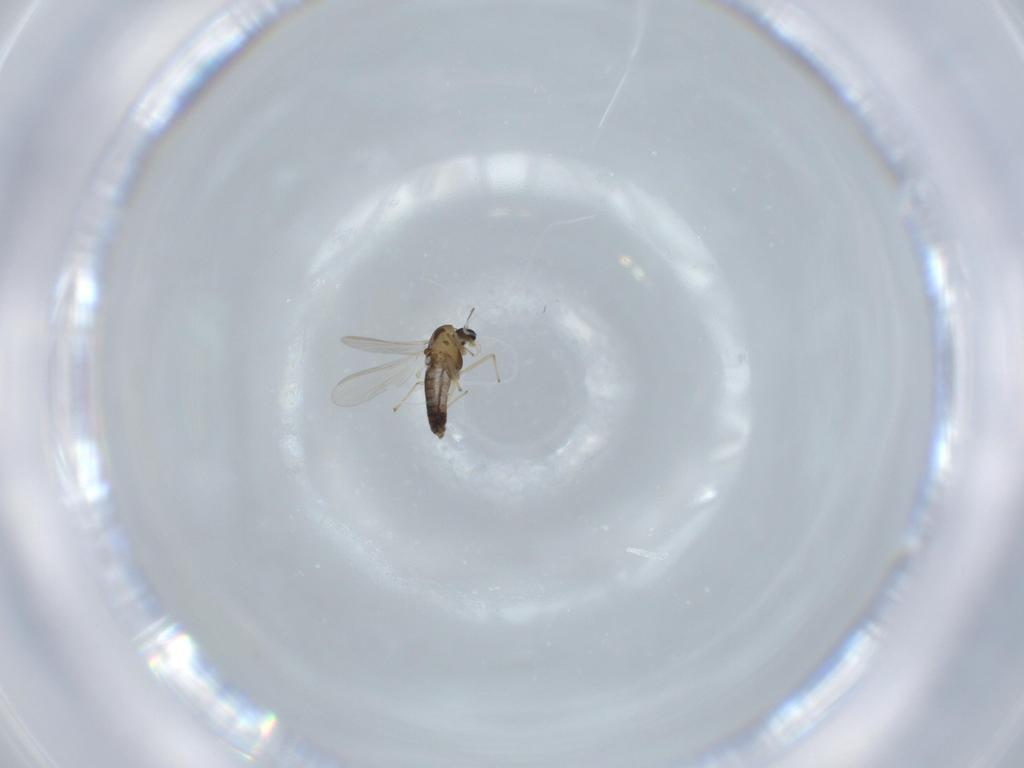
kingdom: Animalia
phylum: Arthropoda
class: Insecta
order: Diptera
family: Chironomidae
